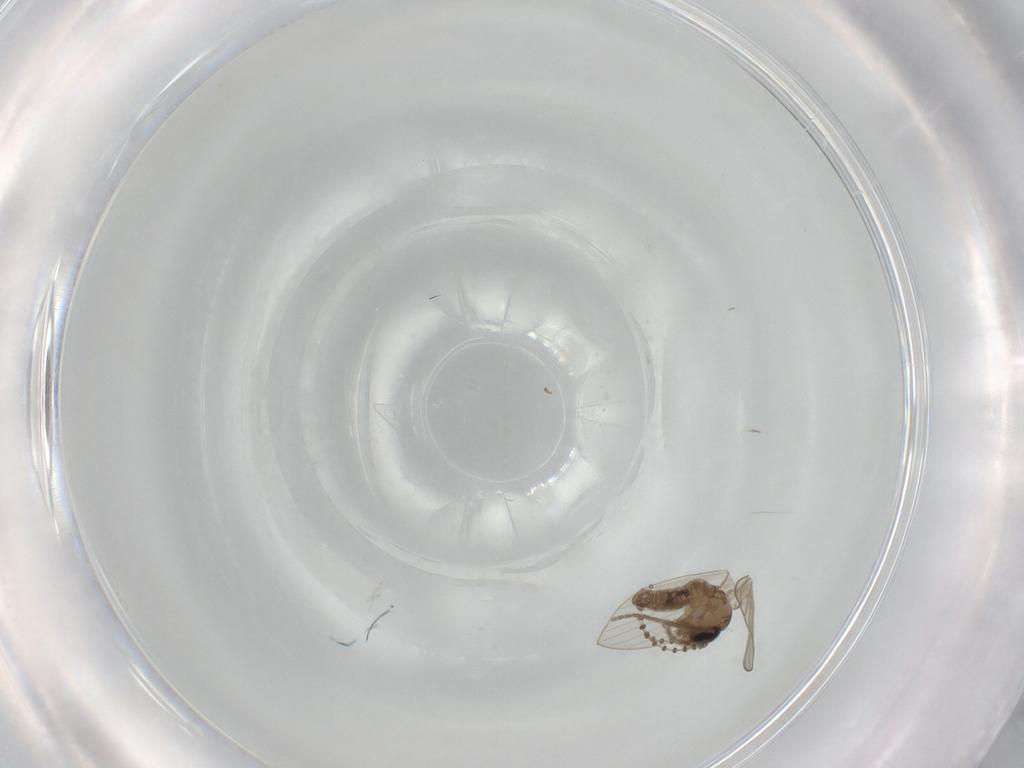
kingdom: Animalia
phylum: Arthropoda
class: Insecta
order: Diptera
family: Psychodidae
